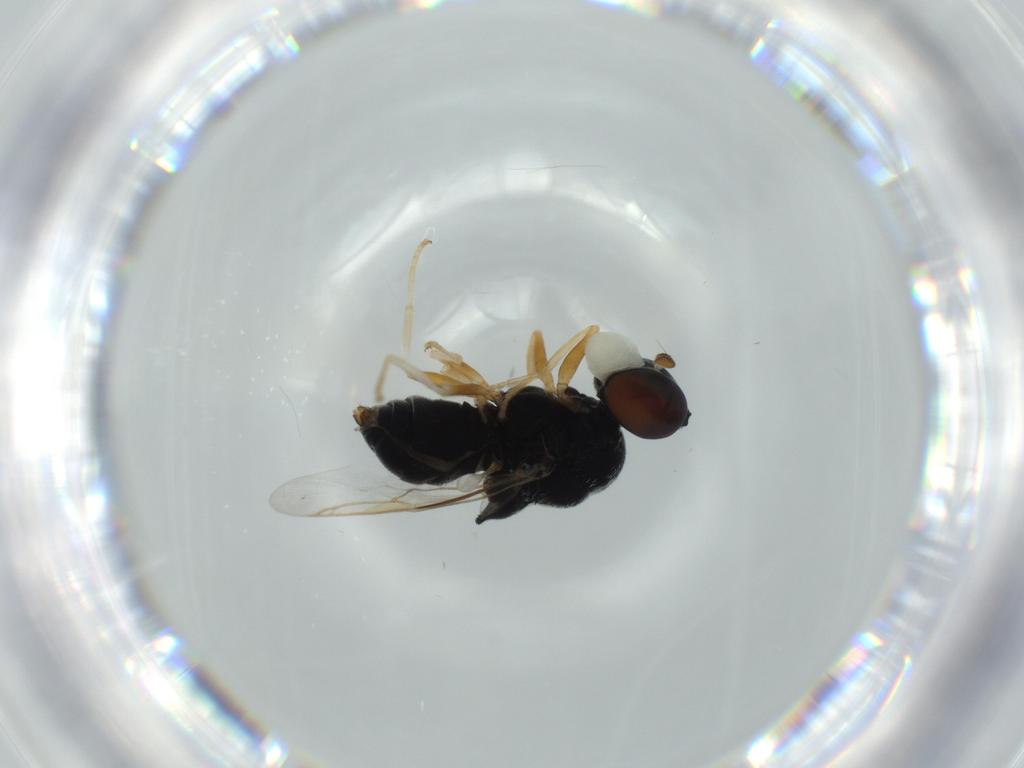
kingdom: Animalia
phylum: Arthropoda
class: Insecta
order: Diptera
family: Stratiomyidae
